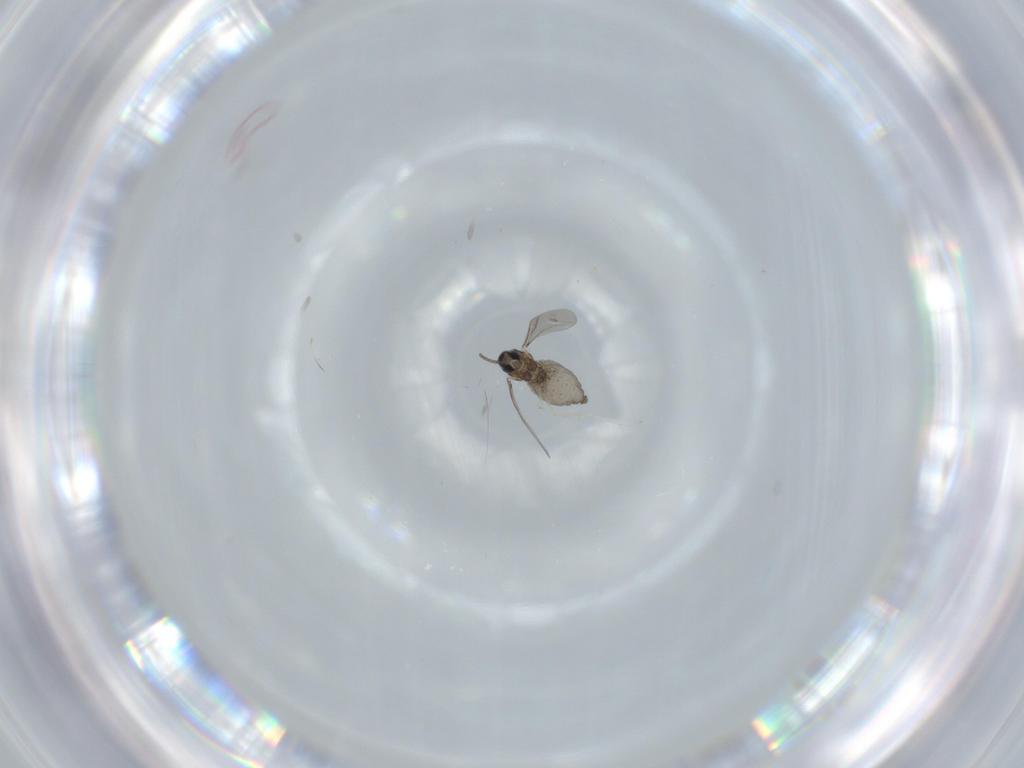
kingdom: Animalia
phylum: Arthropoda
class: Insecta
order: Diptera
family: Cecidomyiidae
